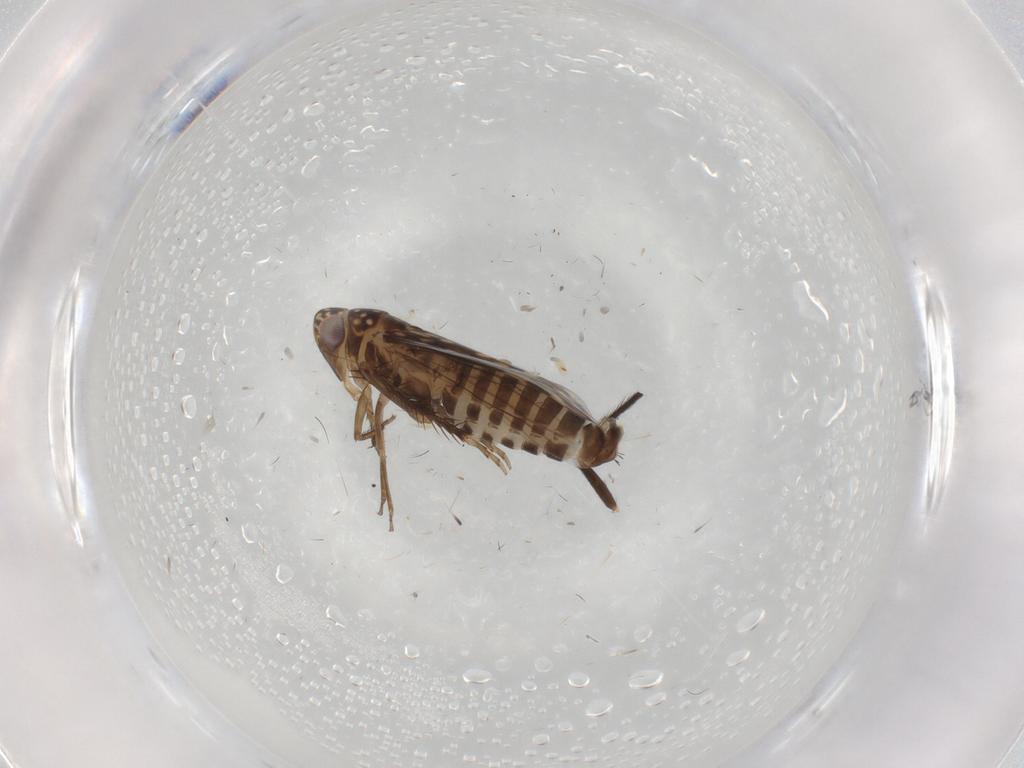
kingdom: Animalia
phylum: Arthropoda
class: Insecta
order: Hemiptera
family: Cicadellidae
